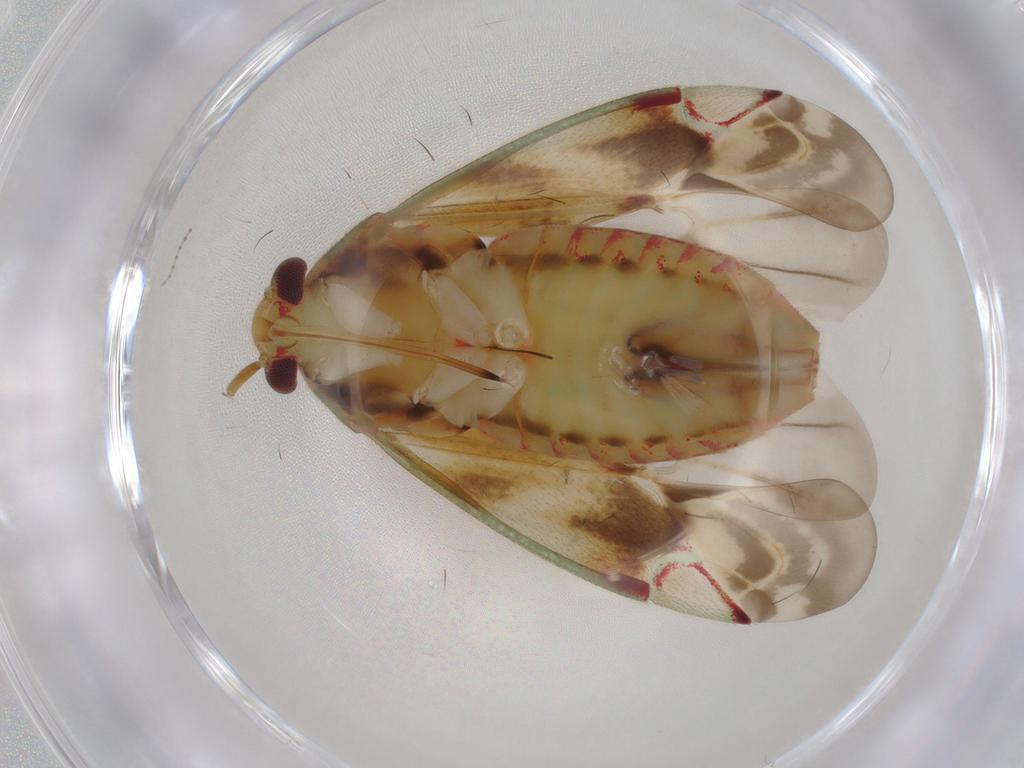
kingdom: Animalia
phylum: Arthropoda
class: Insecta
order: Hemiptera
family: Miridae
